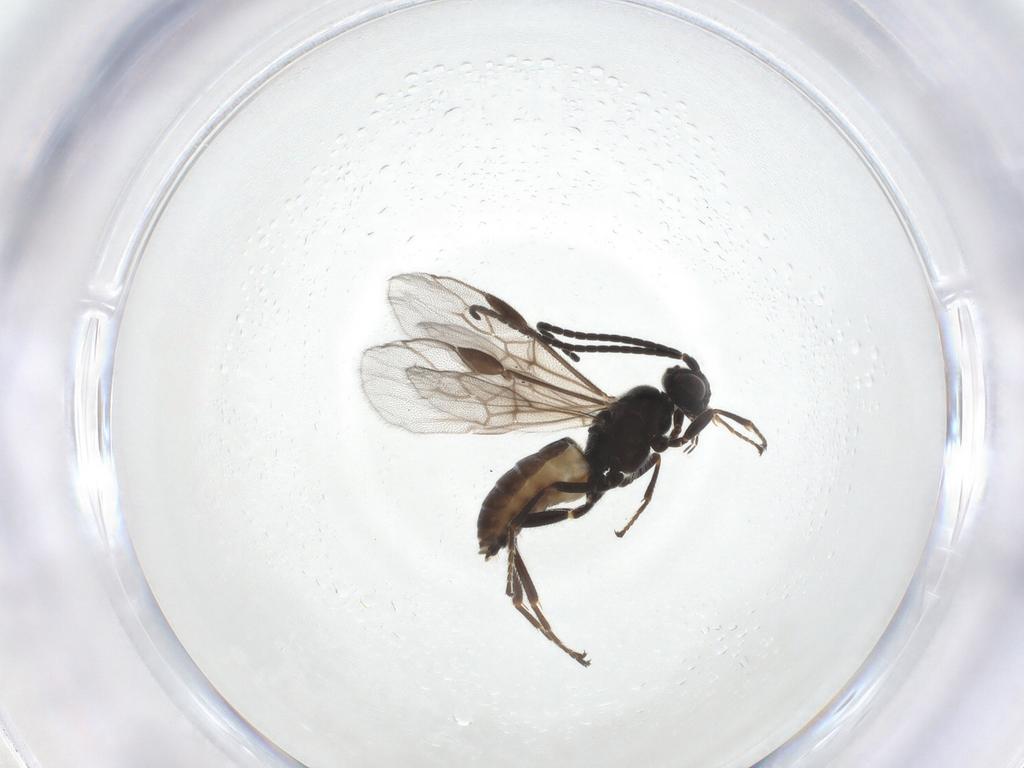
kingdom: Animalia
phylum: Arthropoda
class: Insecta
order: Hymenoptera
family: Braconidae
